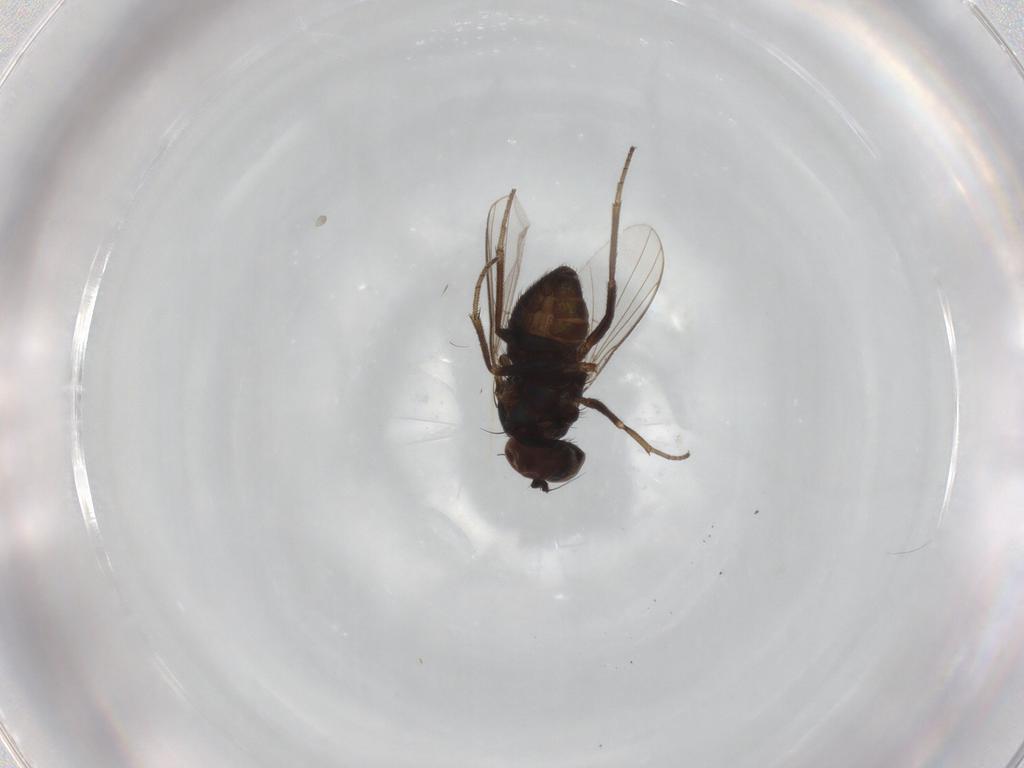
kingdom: Animalia
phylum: Arthropoda
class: Insecta
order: Diptera
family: Dolichopodidae
